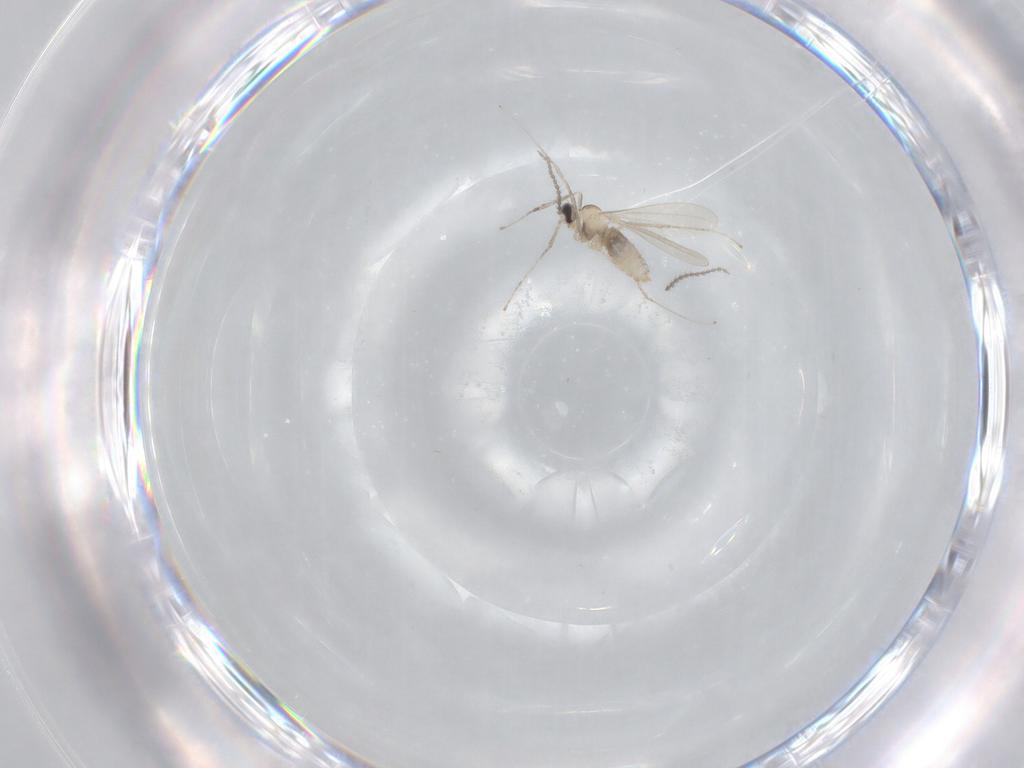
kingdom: Animalia
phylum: Arthropoda
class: Insecta
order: Diptera
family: Cecidomyiidae
